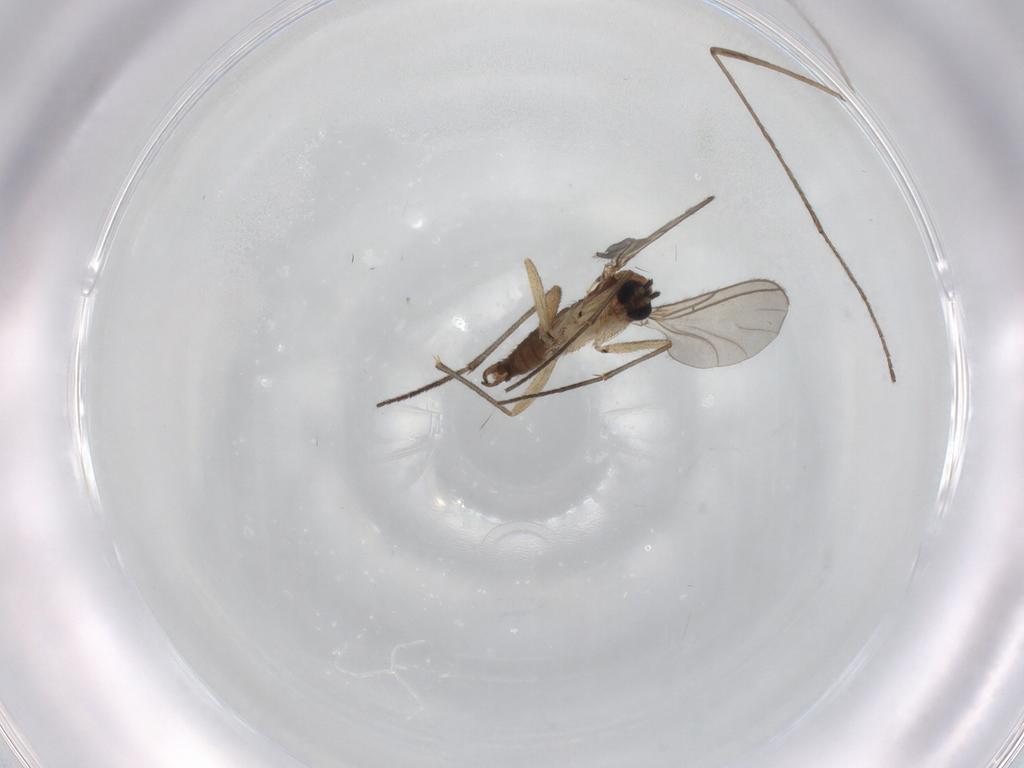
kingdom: Animalia
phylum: Arthropoda
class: Insecta
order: Diptera
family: Sciaridae
